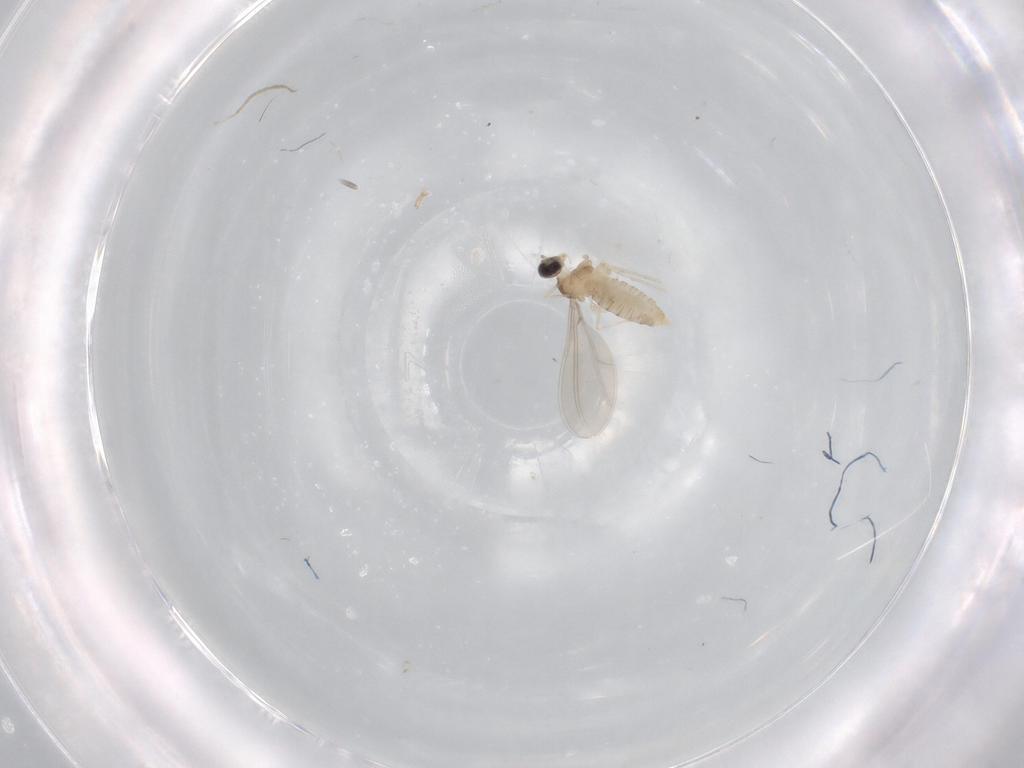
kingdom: Animalia
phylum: Arthropoda
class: Insecta
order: Diptera
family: Cecidomyiidae
